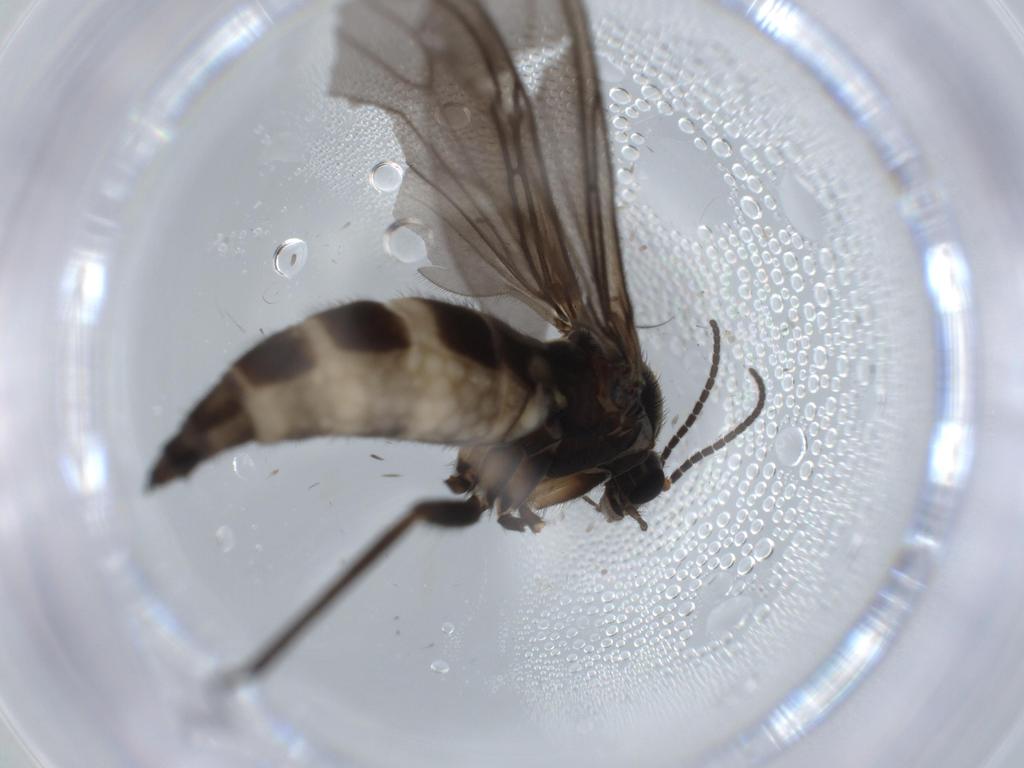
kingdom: Animalia
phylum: Arthropoda
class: Insecta
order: Diptera
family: Sciaridae
